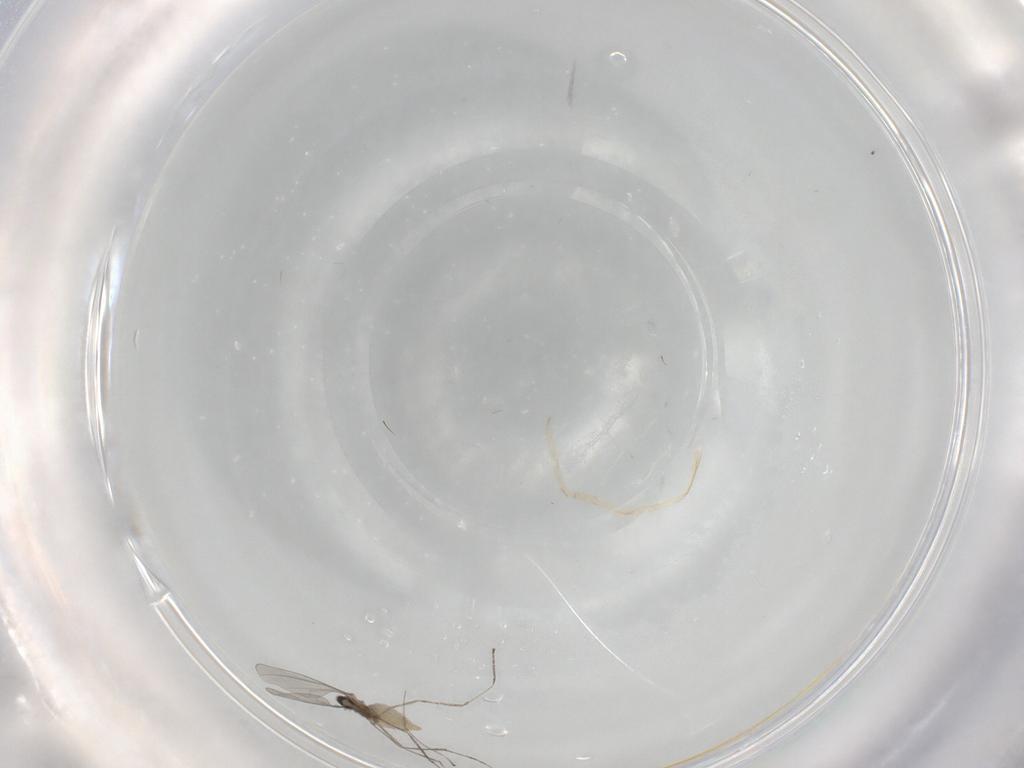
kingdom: Animalia
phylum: Arthropoda
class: Insecta
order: Diptera
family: Cecidomyiidae
